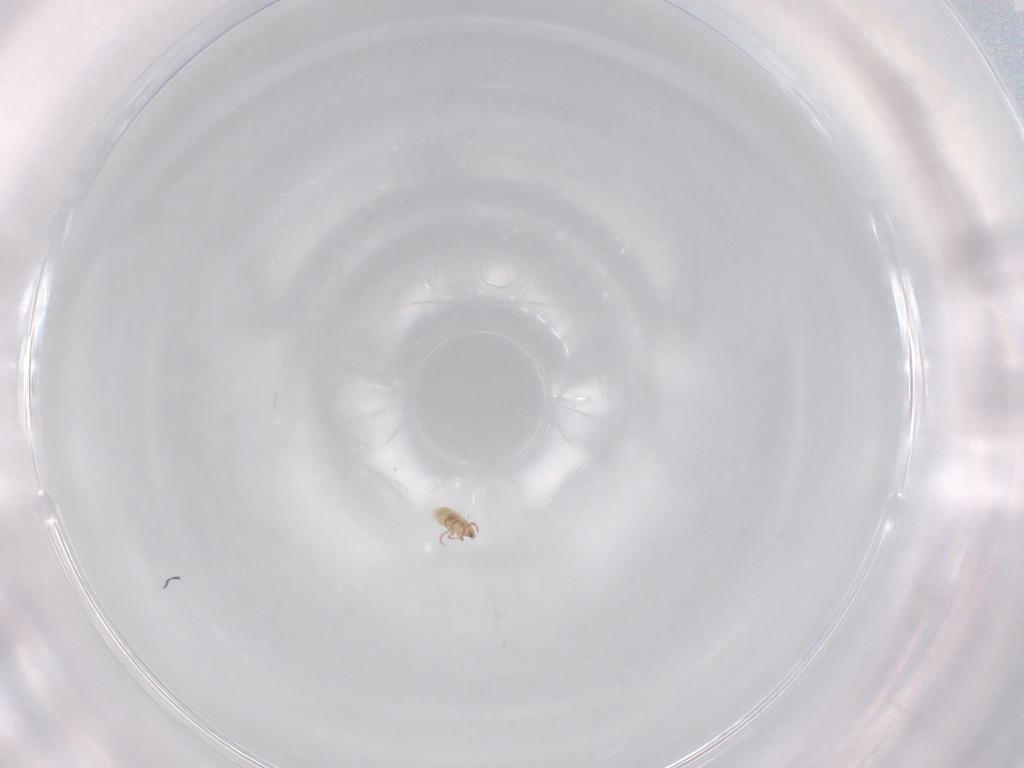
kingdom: Animalia
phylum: Arthropoda
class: Arachnida
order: Sarcoptiformes
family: Oribatulidae
